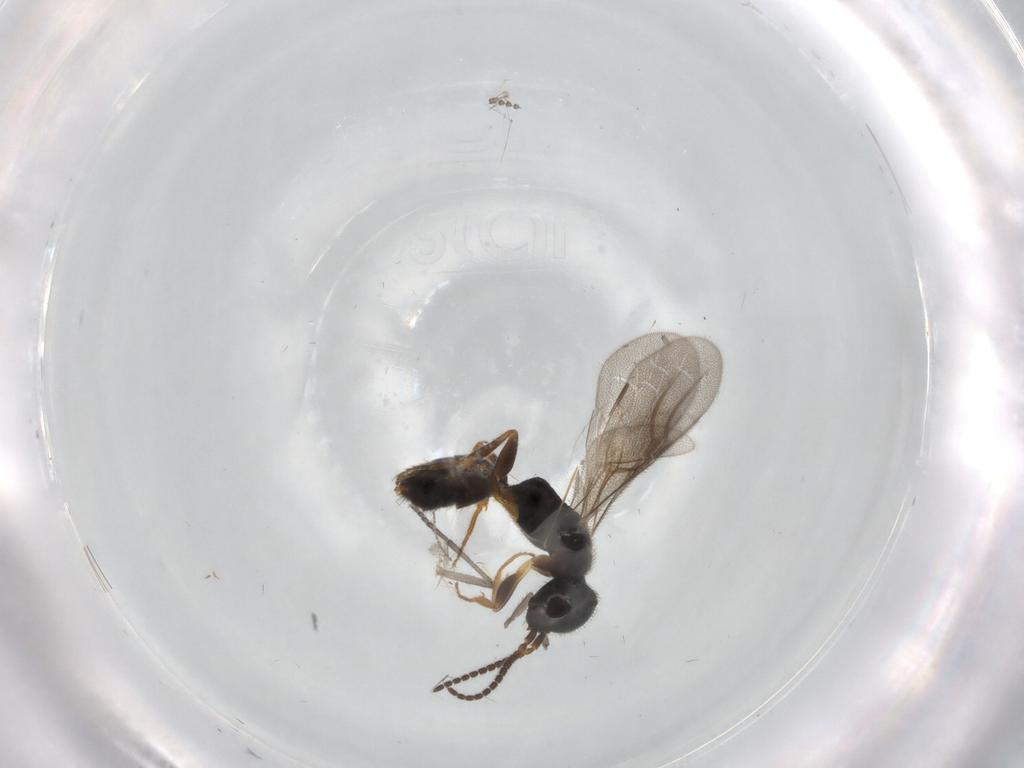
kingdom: Animalia
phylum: Arthropoda
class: Insecta
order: Hymenoptera
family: Bethylidae
